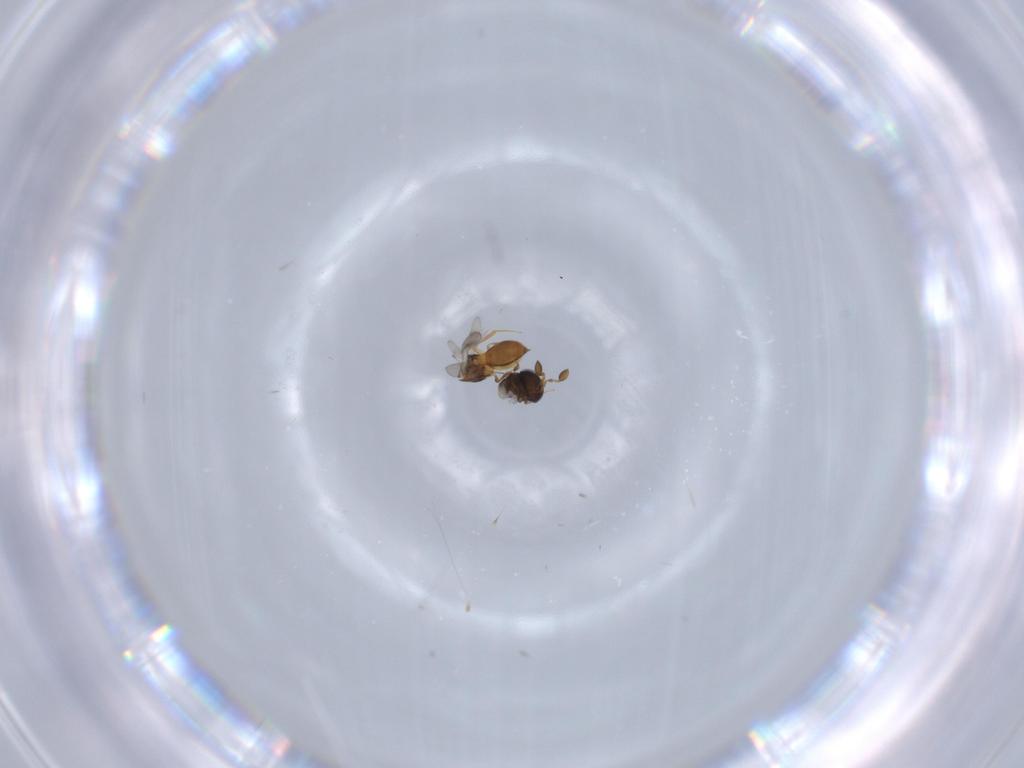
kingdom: Animalia
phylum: Arthropoda
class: Insecta
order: Hymenoptera
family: Scelionidae
